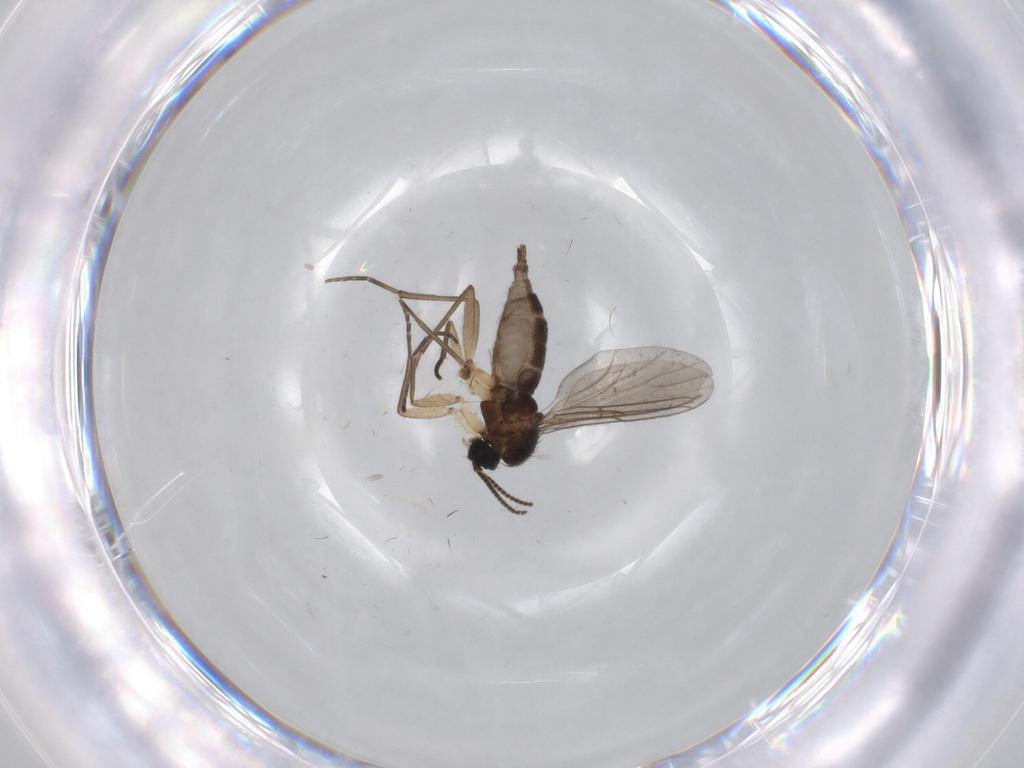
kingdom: Animalia
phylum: Arthropoda
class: Insecta
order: Diptera
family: Sciaridae
